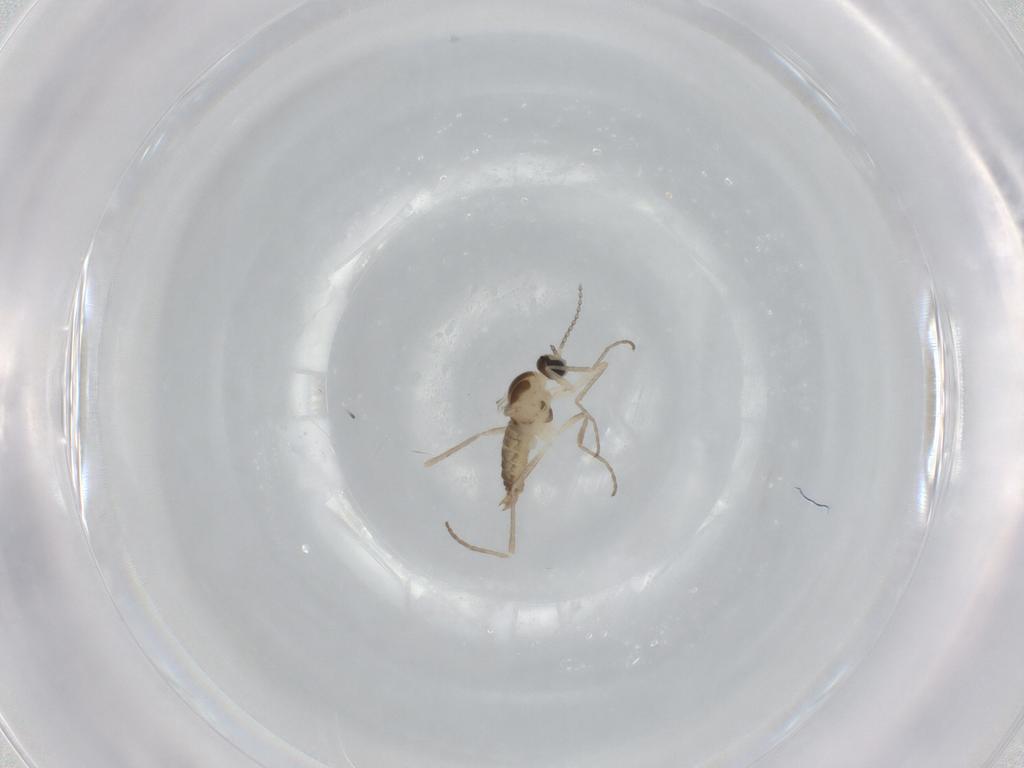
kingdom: Animalia
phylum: Arthropoda
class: Insecta
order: Diptera
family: Cecidomyiidae
